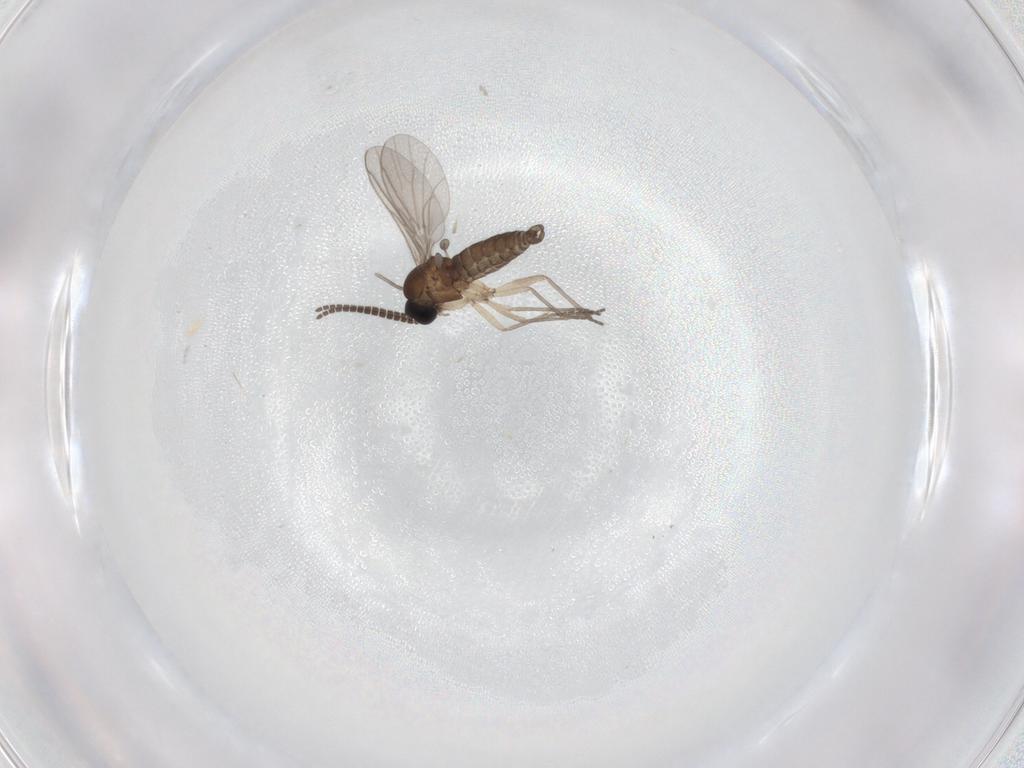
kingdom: Animalia
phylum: Arthropoda
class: Insecta
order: Diptera
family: Sciaridae
